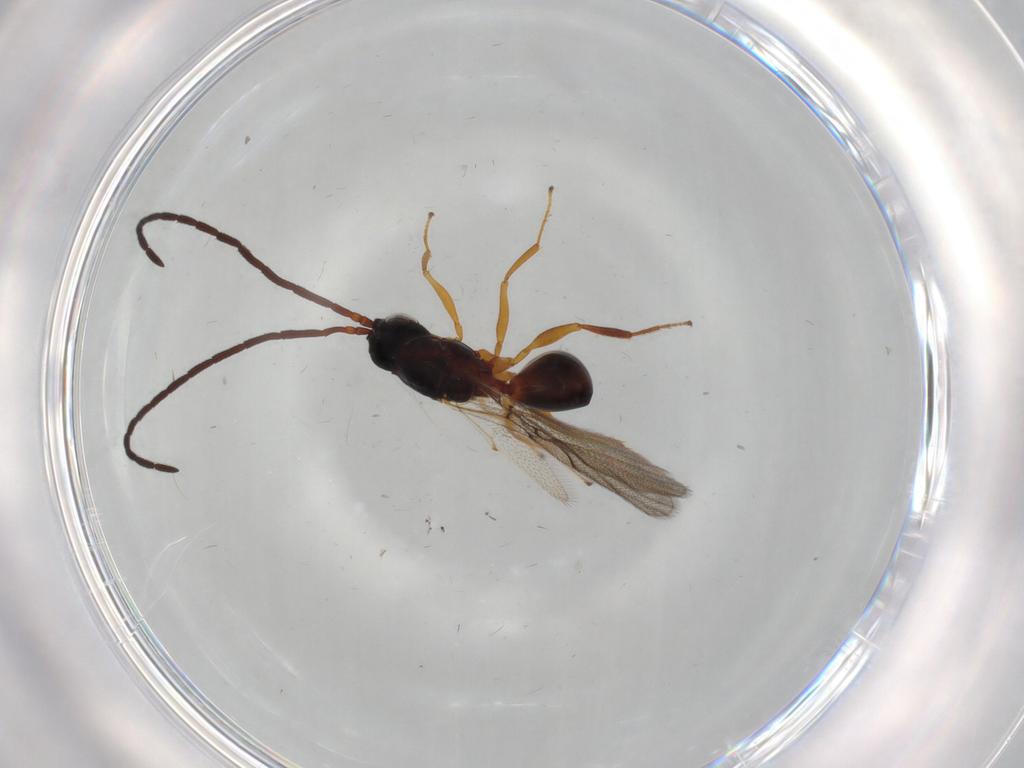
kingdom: Animalia
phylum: Arthropoda
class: Insecta
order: Hymenoptera
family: Figitidae
